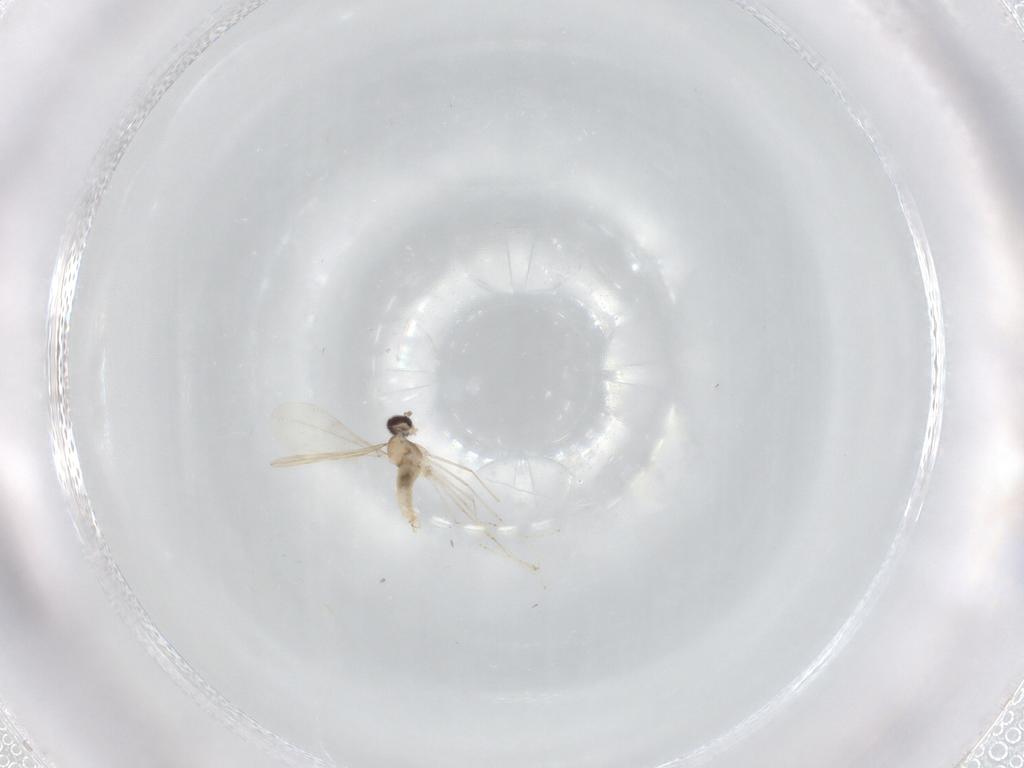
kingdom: Animalia
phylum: Arthropoda
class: Insecta
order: Diptera
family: Cecidomyiidae
